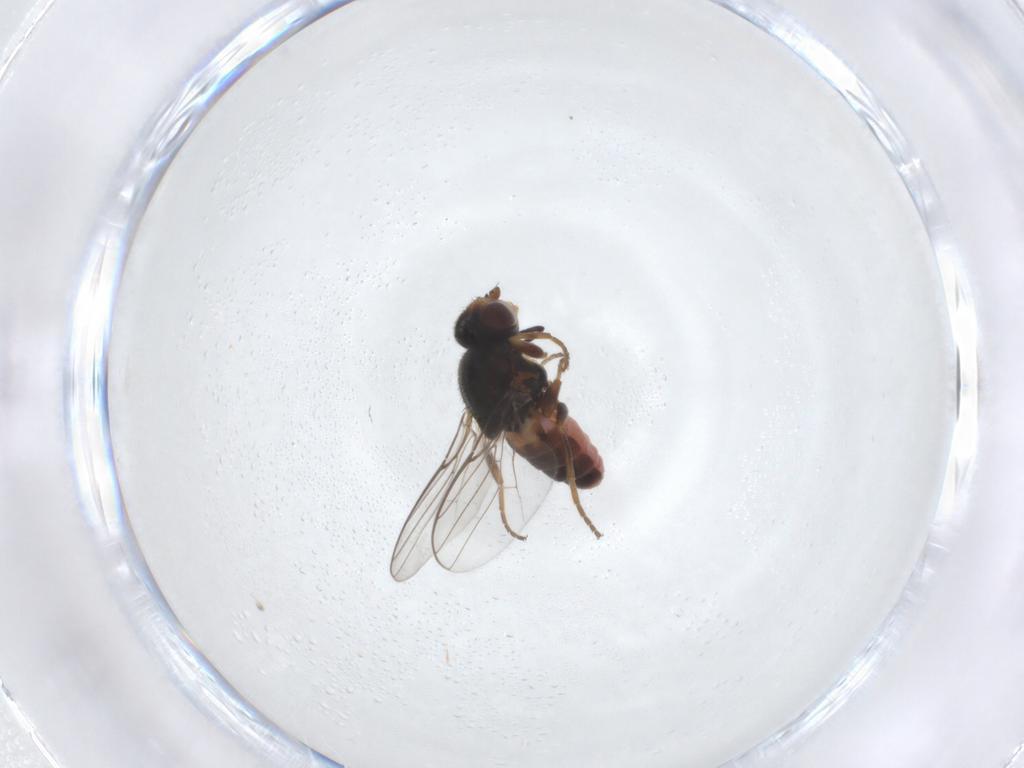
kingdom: Animalia
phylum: Arthropoda
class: Insecta
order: Diptera
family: Chloropidae
